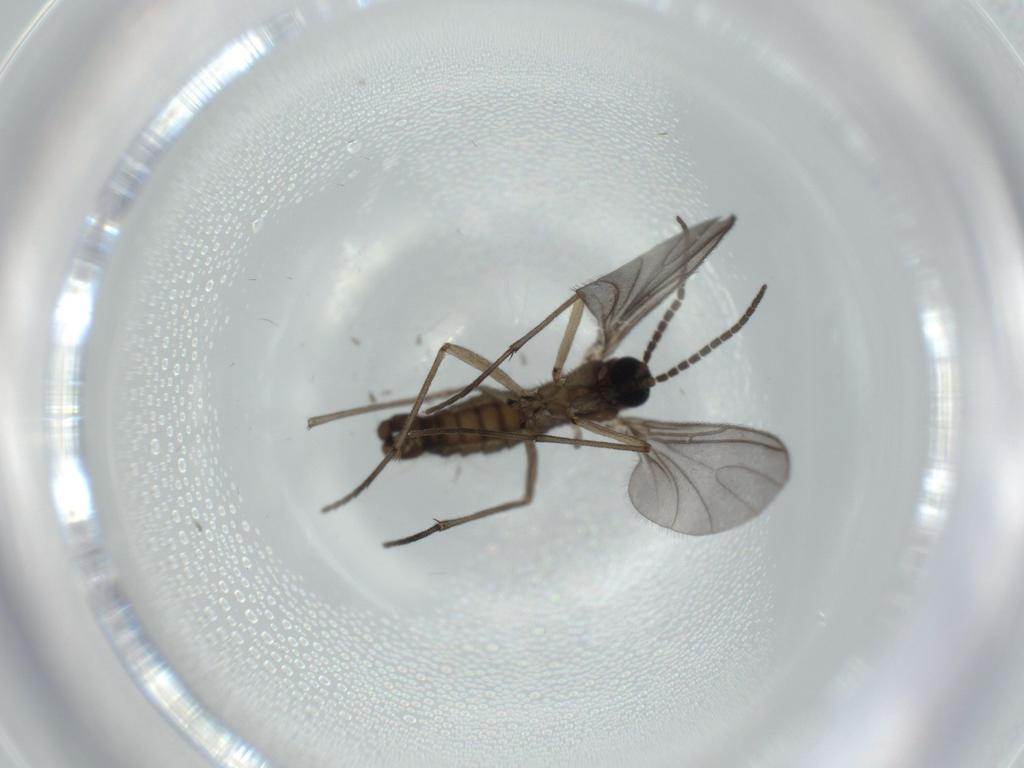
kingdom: Animalia
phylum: Arthropoda
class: Insecta
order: Diptera
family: Sciaridae
